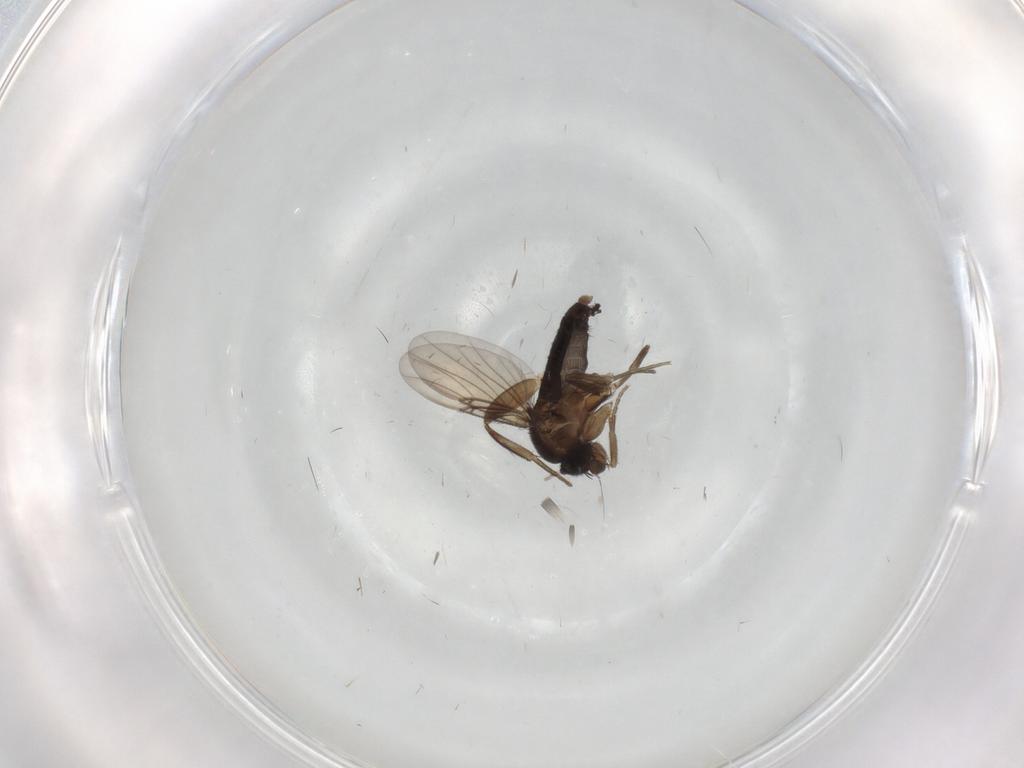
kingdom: Animalia
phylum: Arthropoda
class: Insecta
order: Diptera
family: Phoridae
